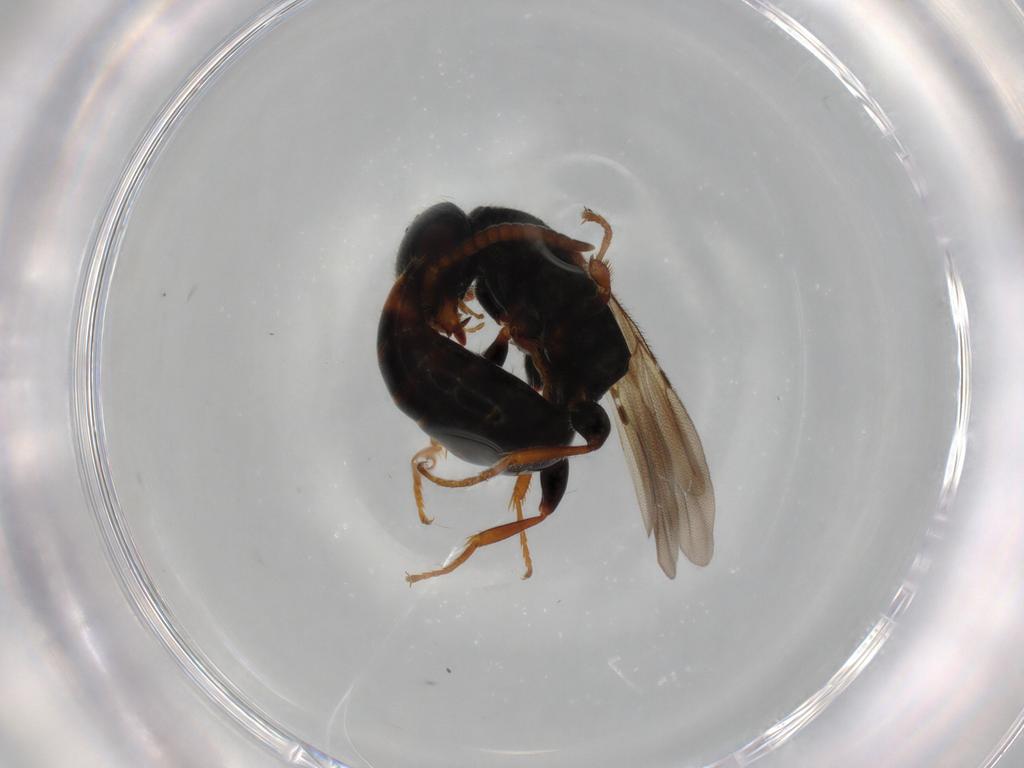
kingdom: Animalia
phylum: Arthropoda
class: Insecta
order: Hymenoptera
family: Bethylidae
